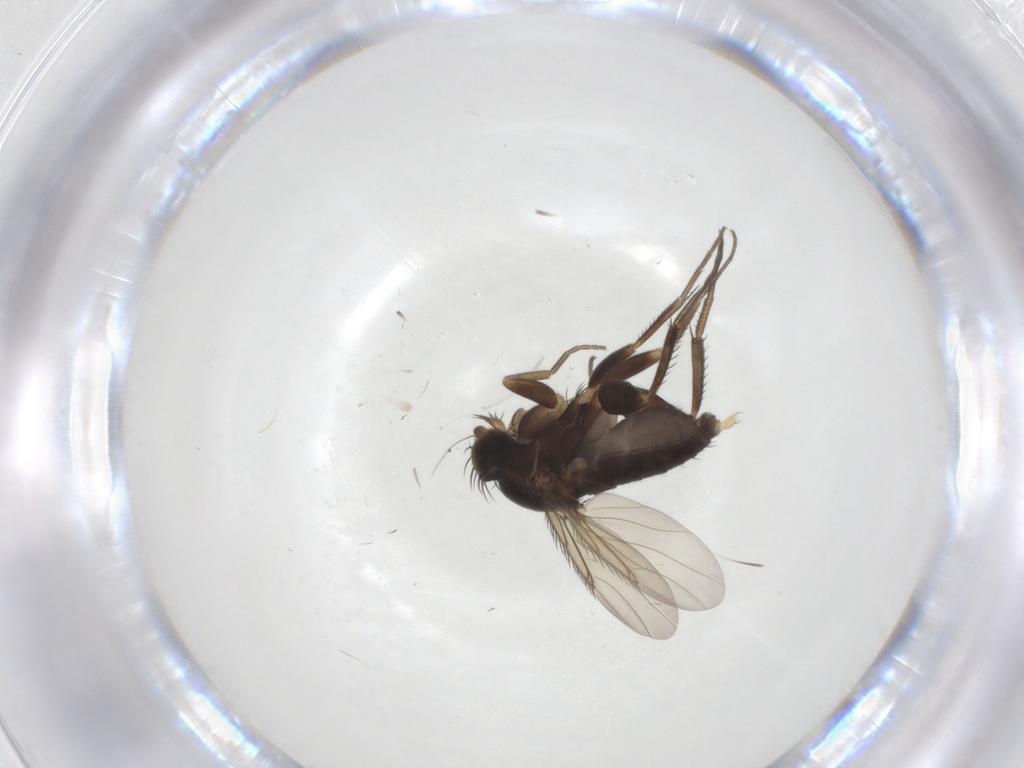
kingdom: Animalia
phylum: Arthropoda
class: Insecta
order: Diptera
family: Phoridae
